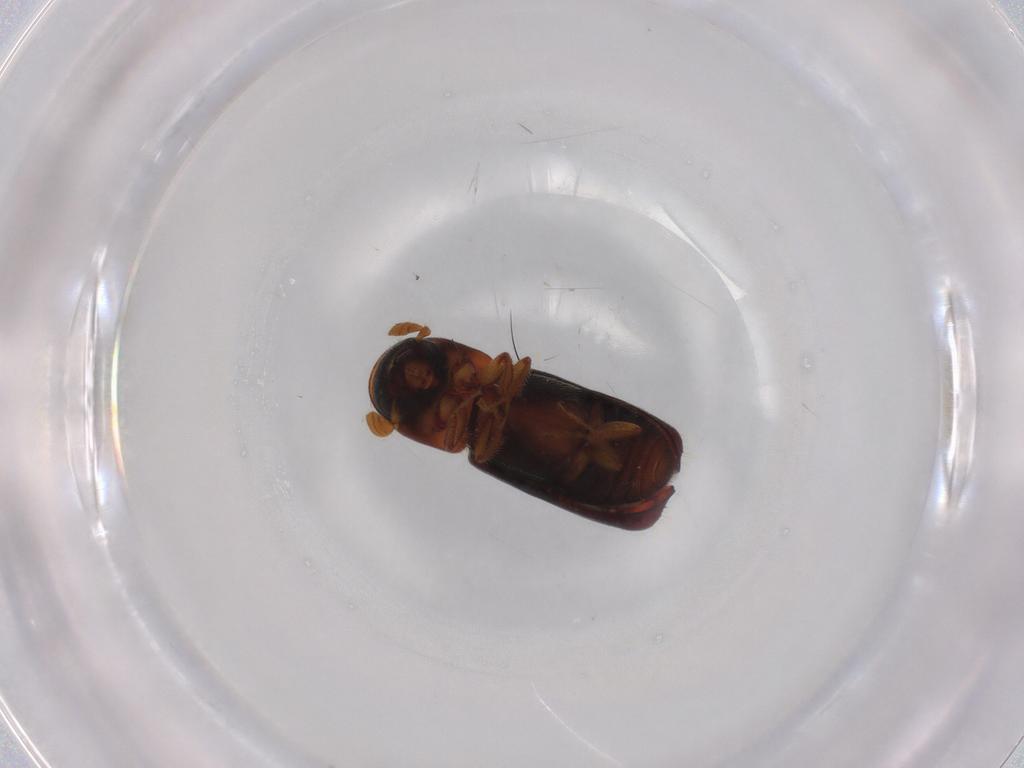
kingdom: Animalia
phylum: Arthropoda
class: Insecta
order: Coleoptera
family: Curculionidae
